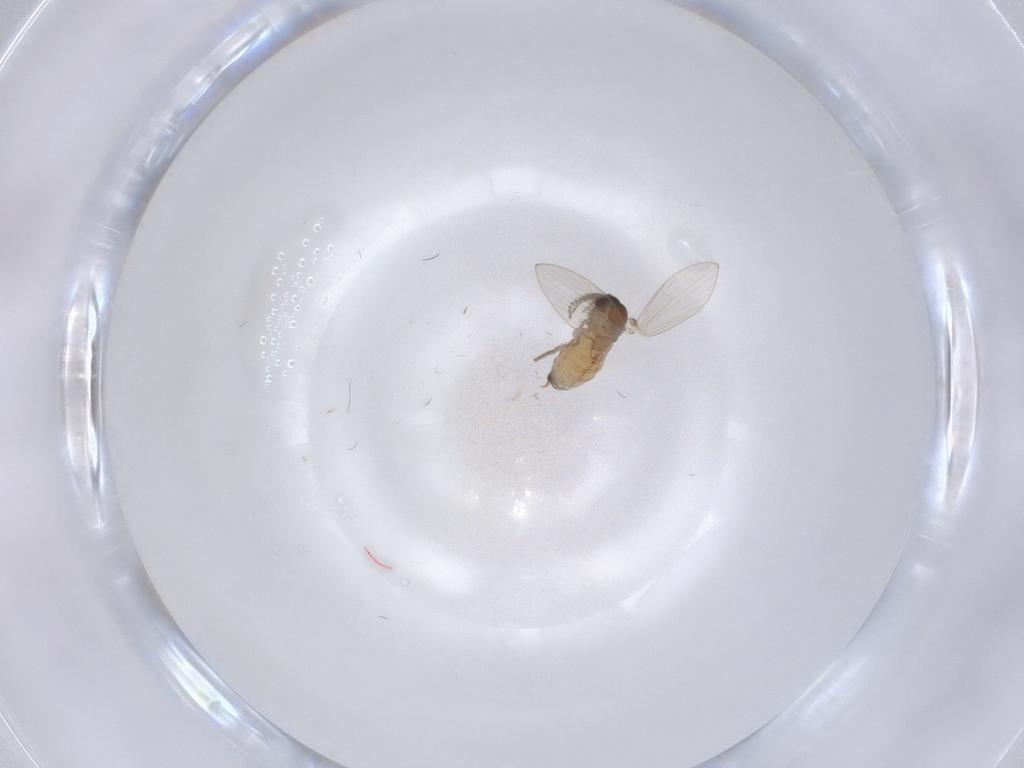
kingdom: Animalia
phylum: Arthropoda
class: Insecta
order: Diptera
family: Psychodidae
